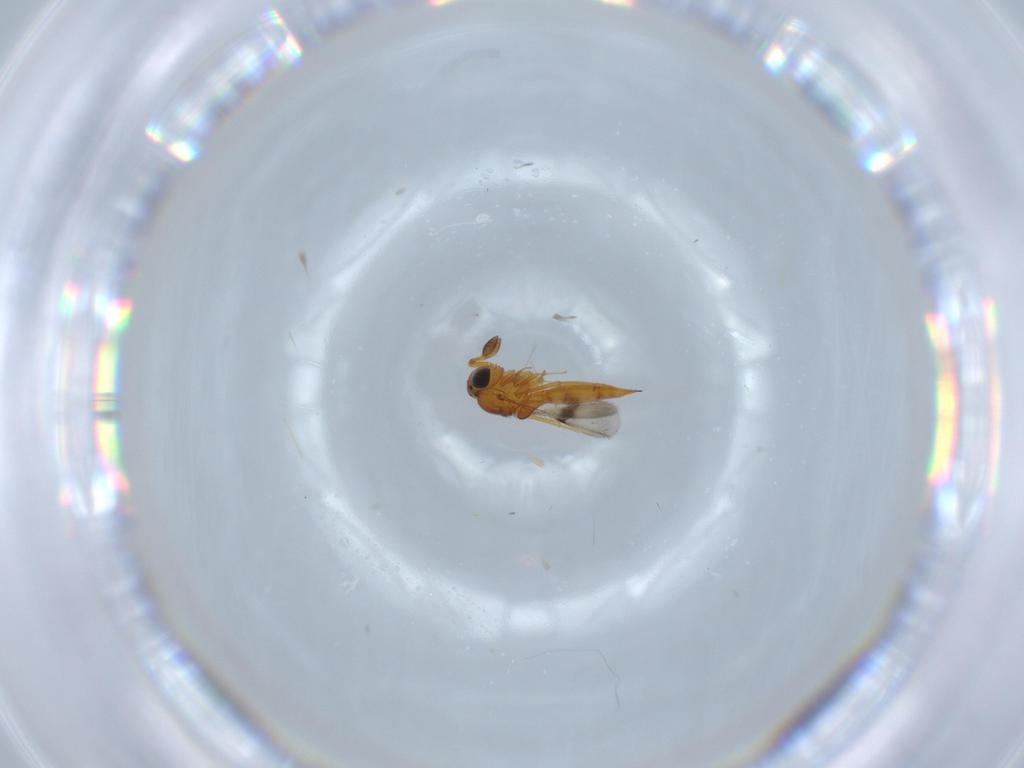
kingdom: Animalia
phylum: Arthropoda
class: Insecta
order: Hymenoptera
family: Scelionidae
